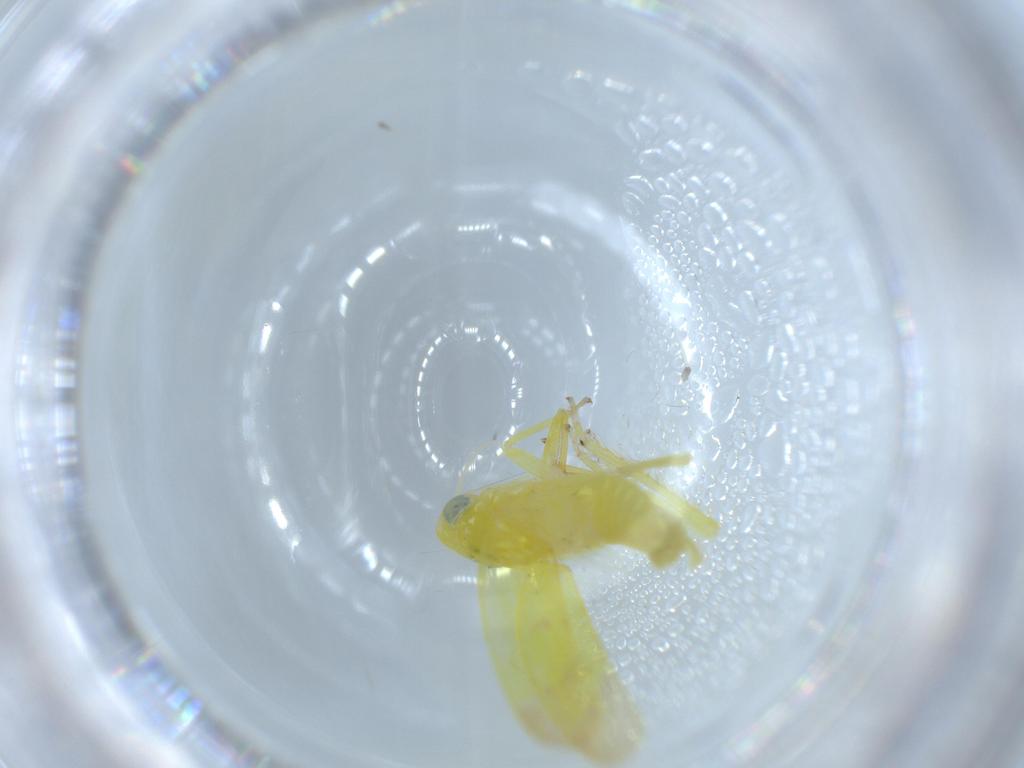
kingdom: Animalia
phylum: Arthropoda
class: Insecta
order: Hemiptera
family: Cicadellidae
